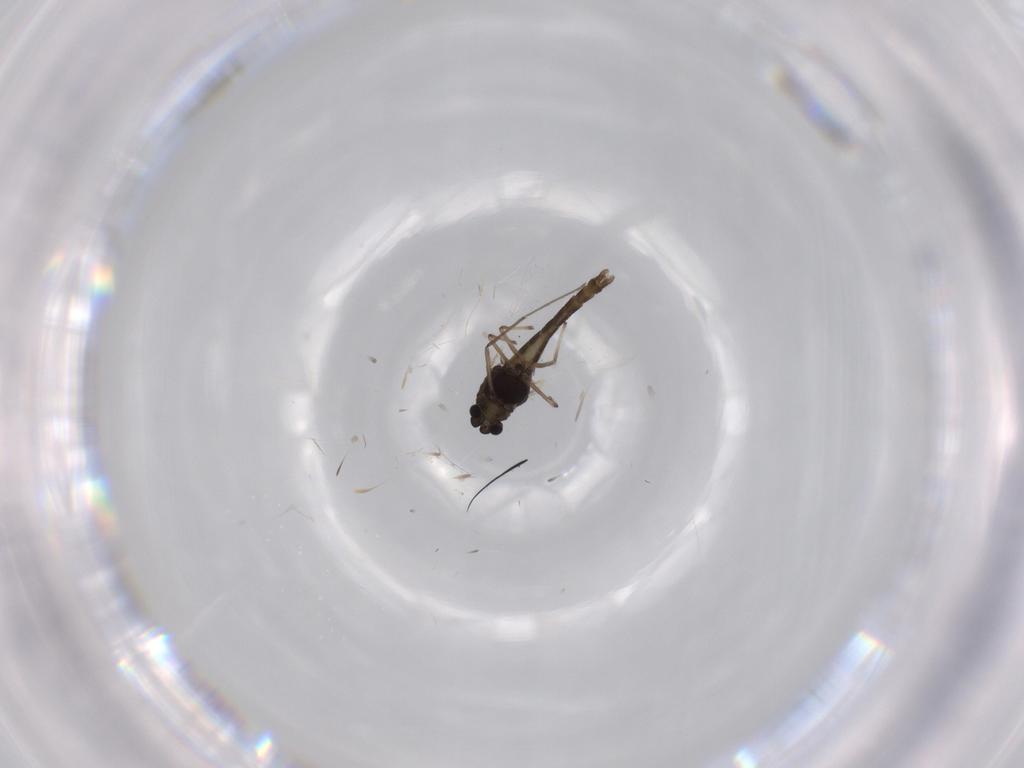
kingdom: Animalia
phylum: Arthropoda
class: Insecta
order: Diptera
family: Chironomidae
